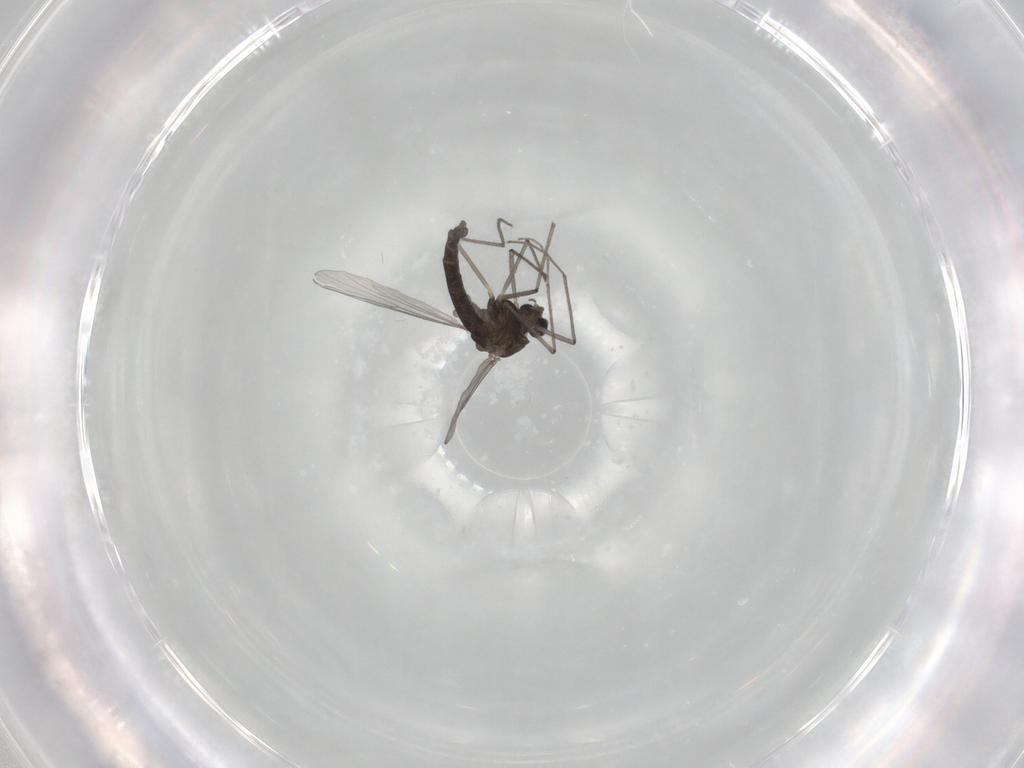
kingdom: Animalia
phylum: Arthropoda
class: Insecta
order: Diptera
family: Chironomidae
